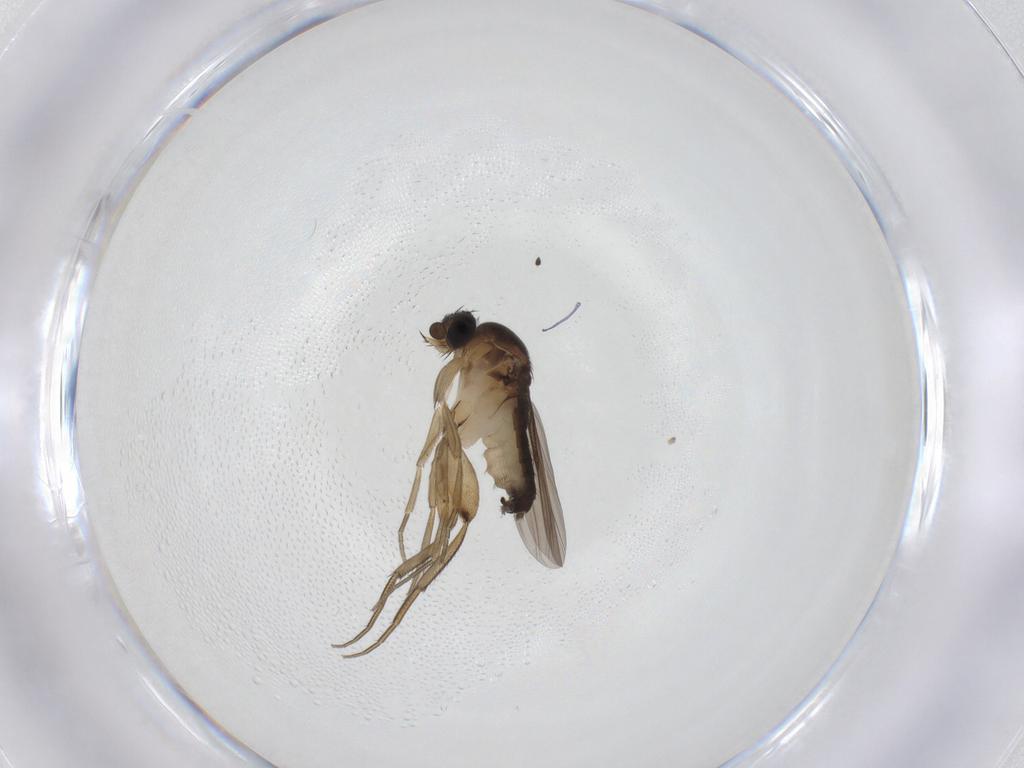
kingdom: Animalia
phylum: Arthropoda
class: Insecta
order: Diptera
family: Phoridae
